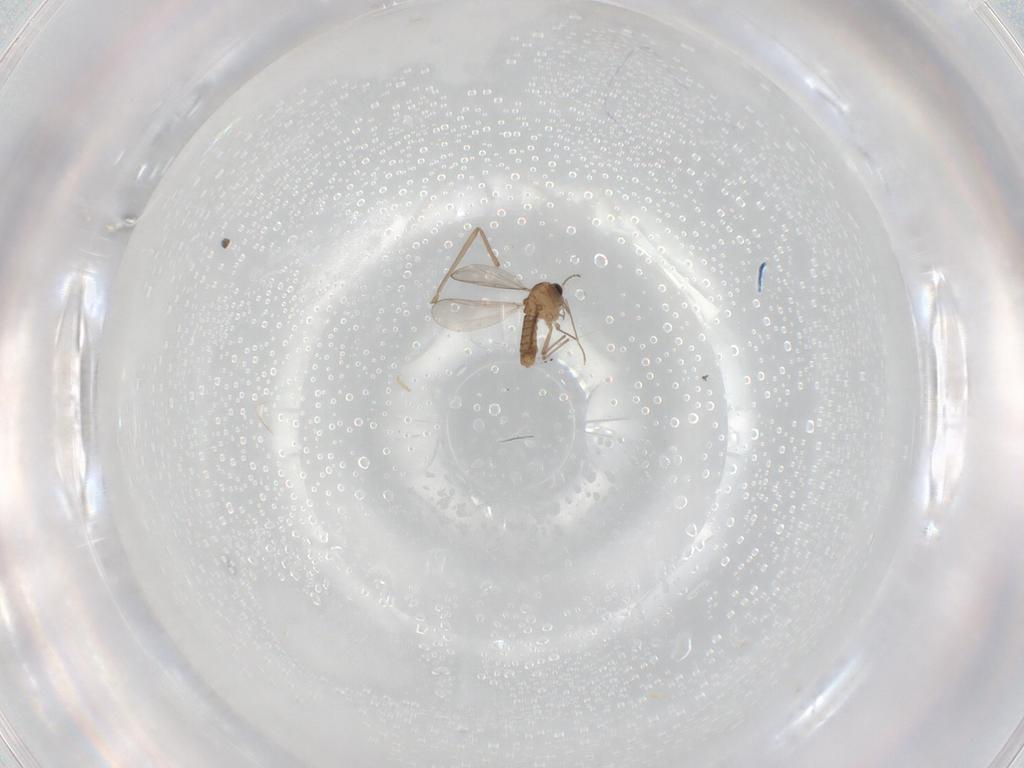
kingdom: Animalia
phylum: Arthropoda
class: Insecta
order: Diptera
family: Chironomidae
